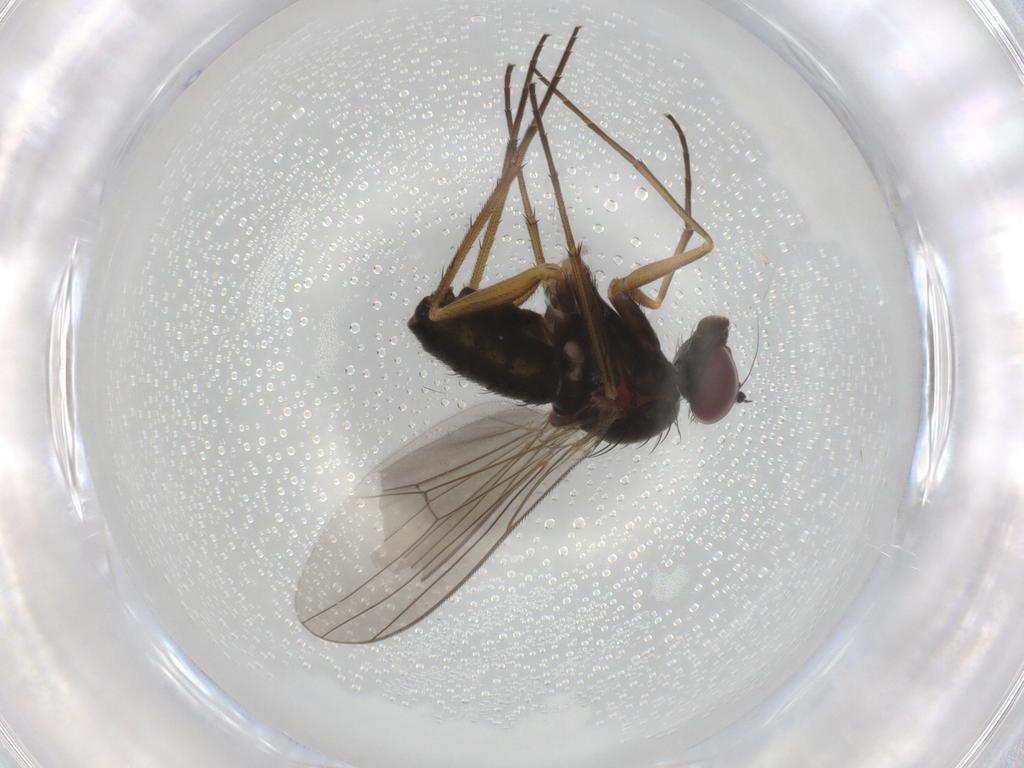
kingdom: Animalia
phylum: Arthropoda
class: Insecta
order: Diptera
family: Dolichopodidae
